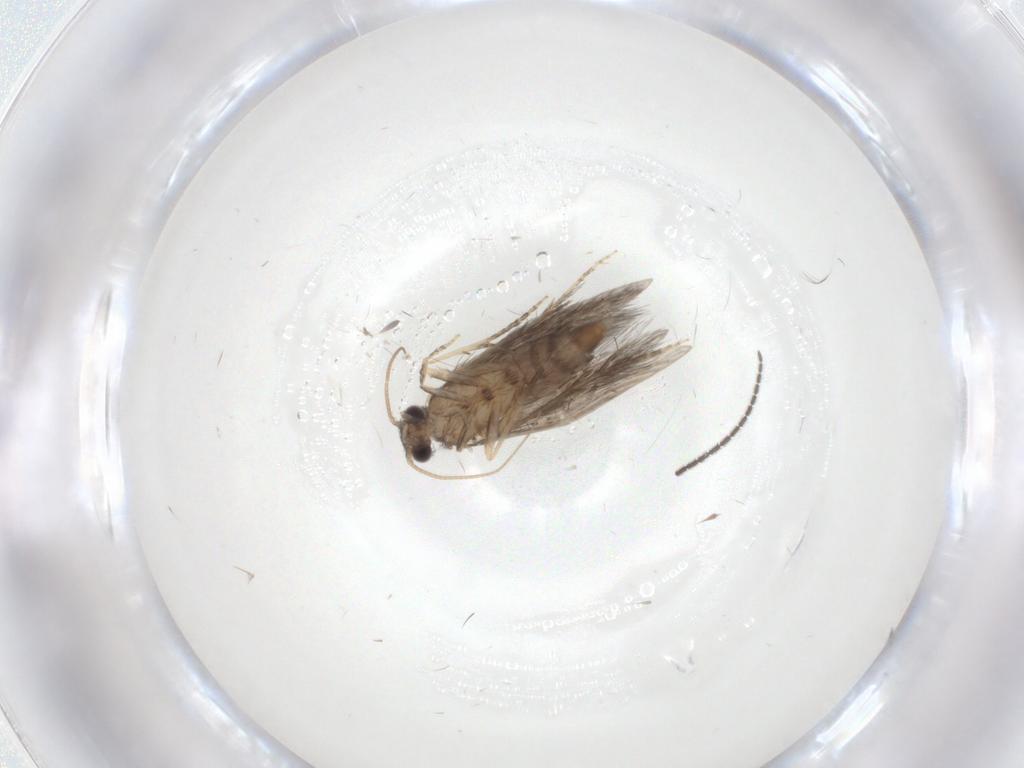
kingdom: Animalia
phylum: Arthropoda
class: Insecta
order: Trichoptera
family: Hydroptilidae
